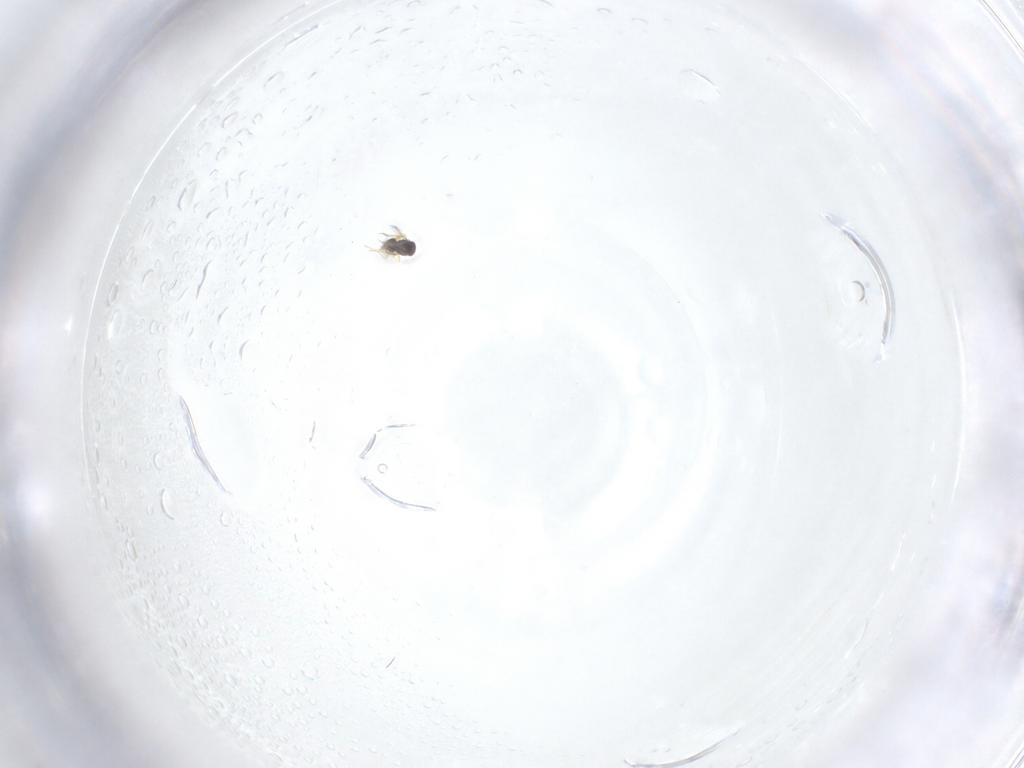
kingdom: Animalia
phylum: Arthropoda
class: Insecta
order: Hymenoptera
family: Mymaridae
